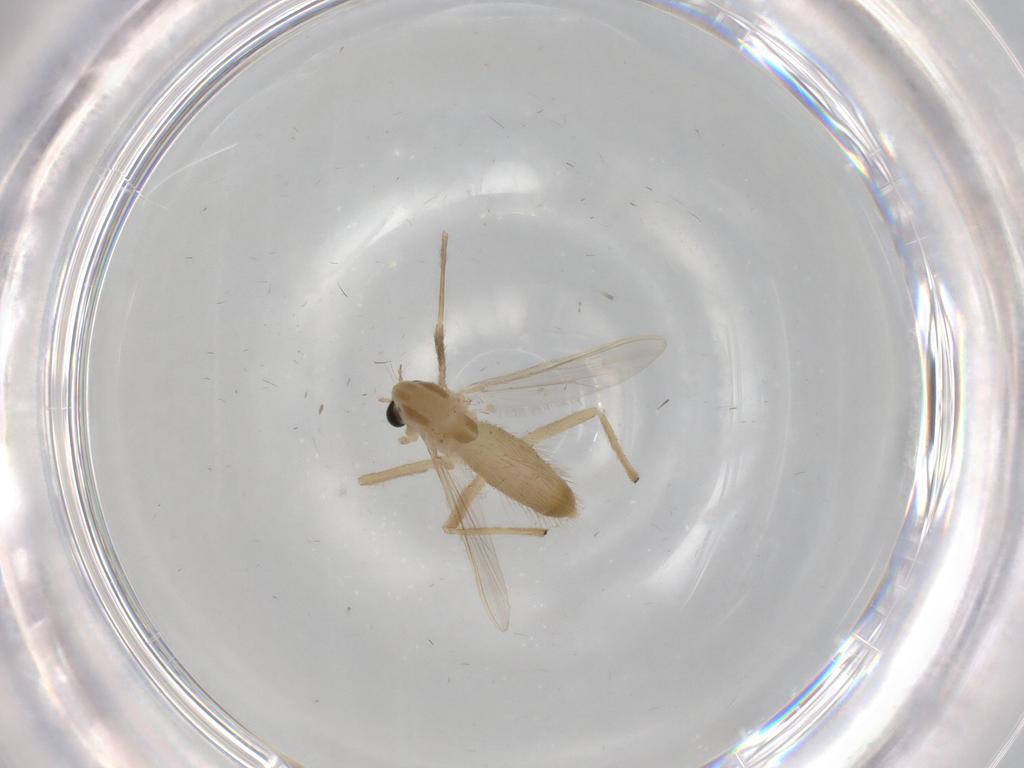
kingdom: Animalia
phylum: Arthropoda
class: Insecta
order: Diptera
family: Chironomidae
